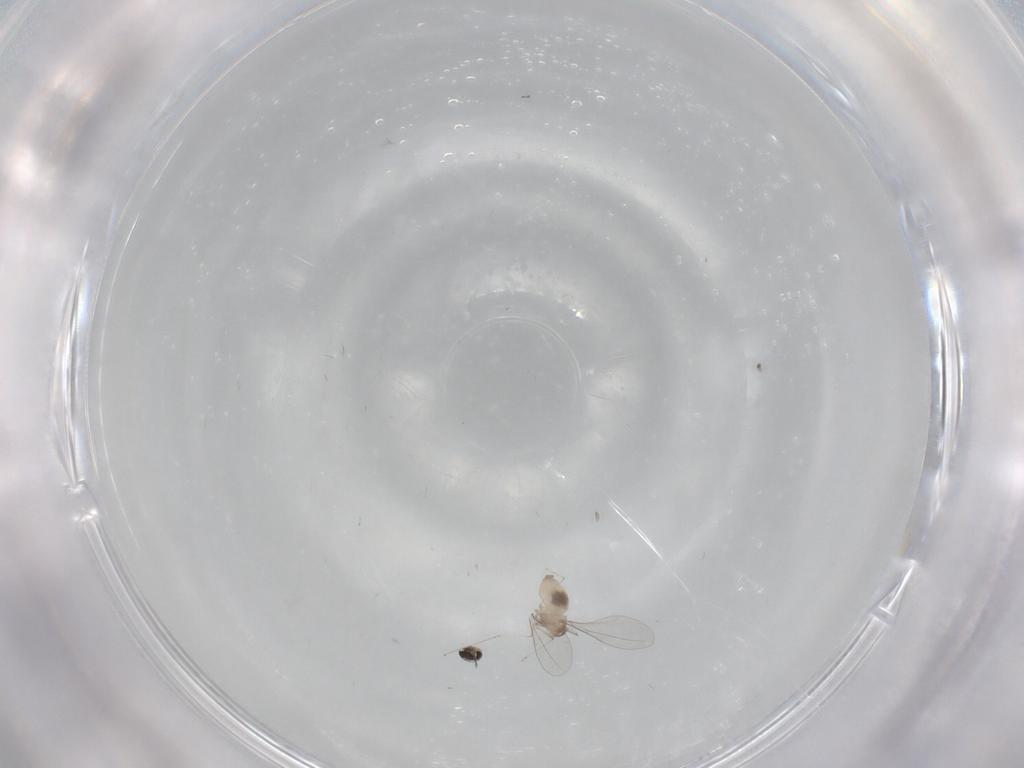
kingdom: Animalia
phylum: Arthropoda
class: Insecta
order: Diptera
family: Cecidomyiidae
